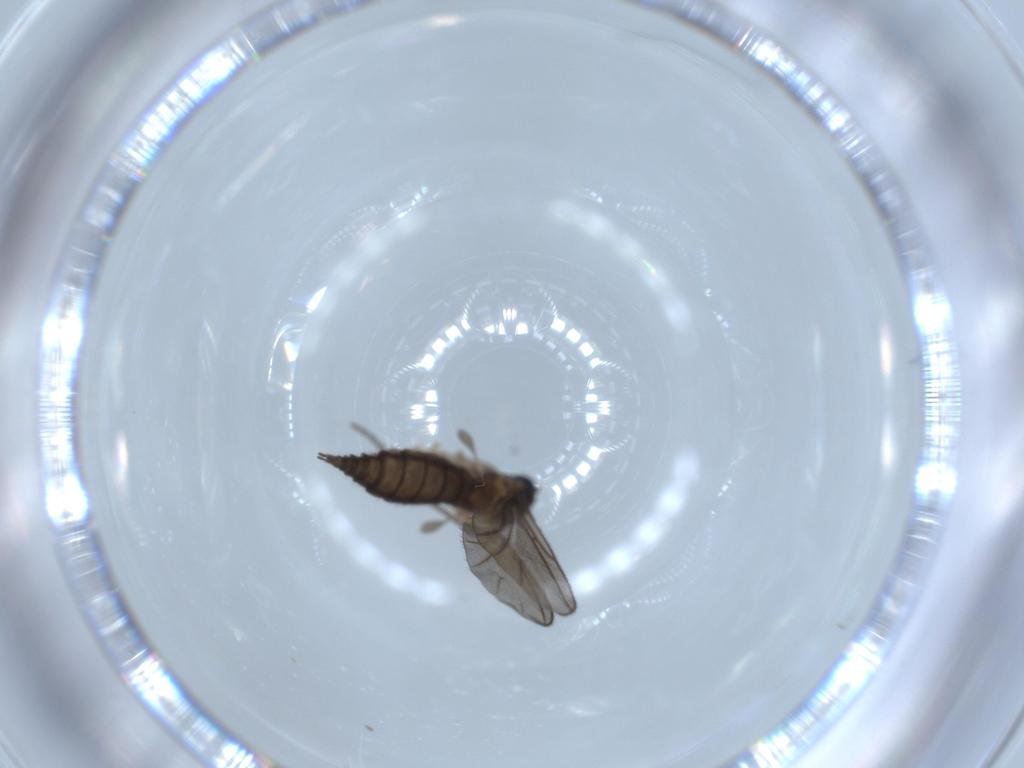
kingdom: Animalia
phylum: Arthropoda
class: Insecta
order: Diptera
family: Sciaridae
